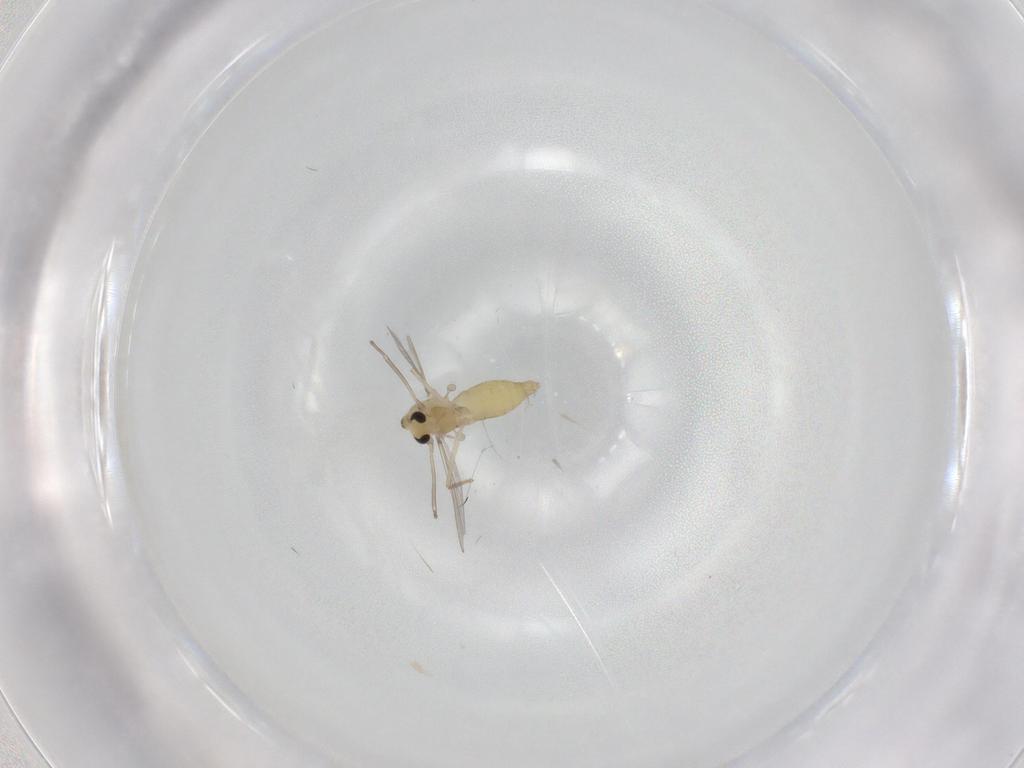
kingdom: Animalia
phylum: Arthropoda
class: Insecta
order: Diptera
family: Chironomidae
